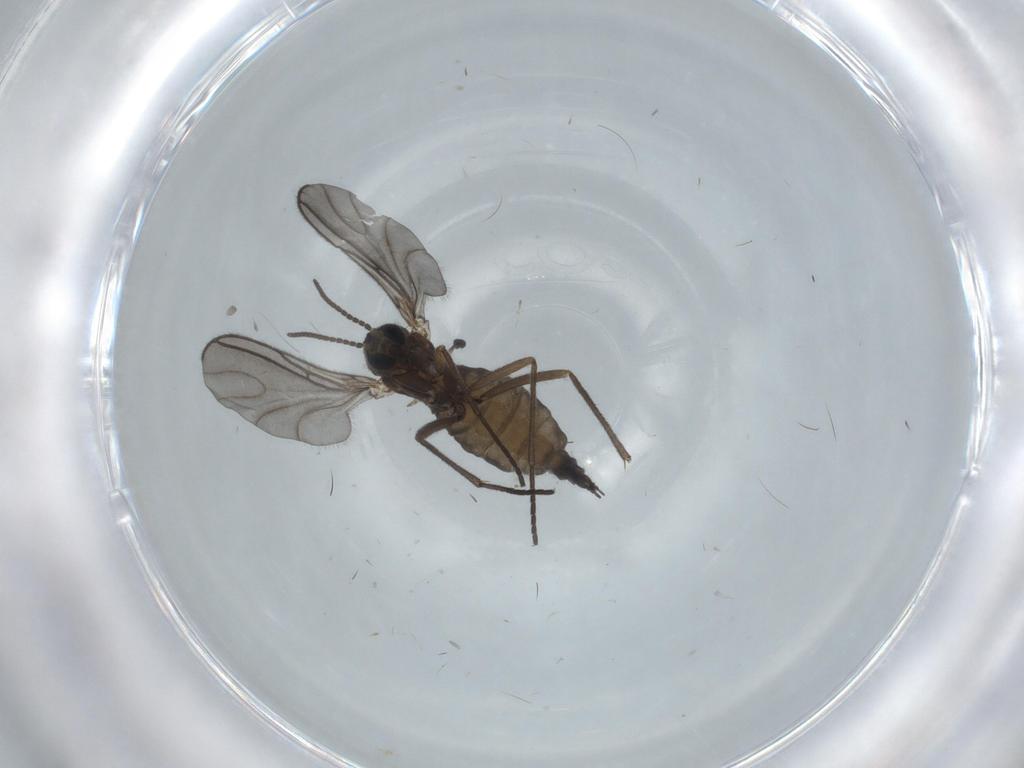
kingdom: Animalia
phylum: Arthropoda
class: Insecta
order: Diptera
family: Sciaridae
